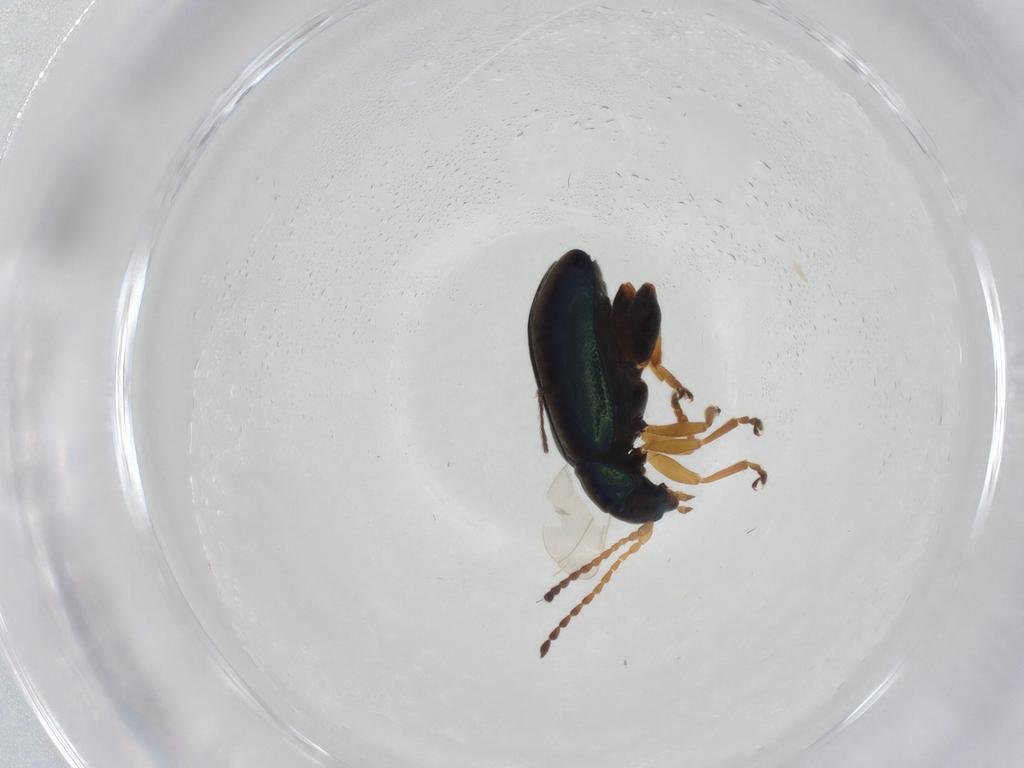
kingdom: Animalia
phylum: Arthropoda
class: Insecta
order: Coleoptera
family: Chrysomelidae
